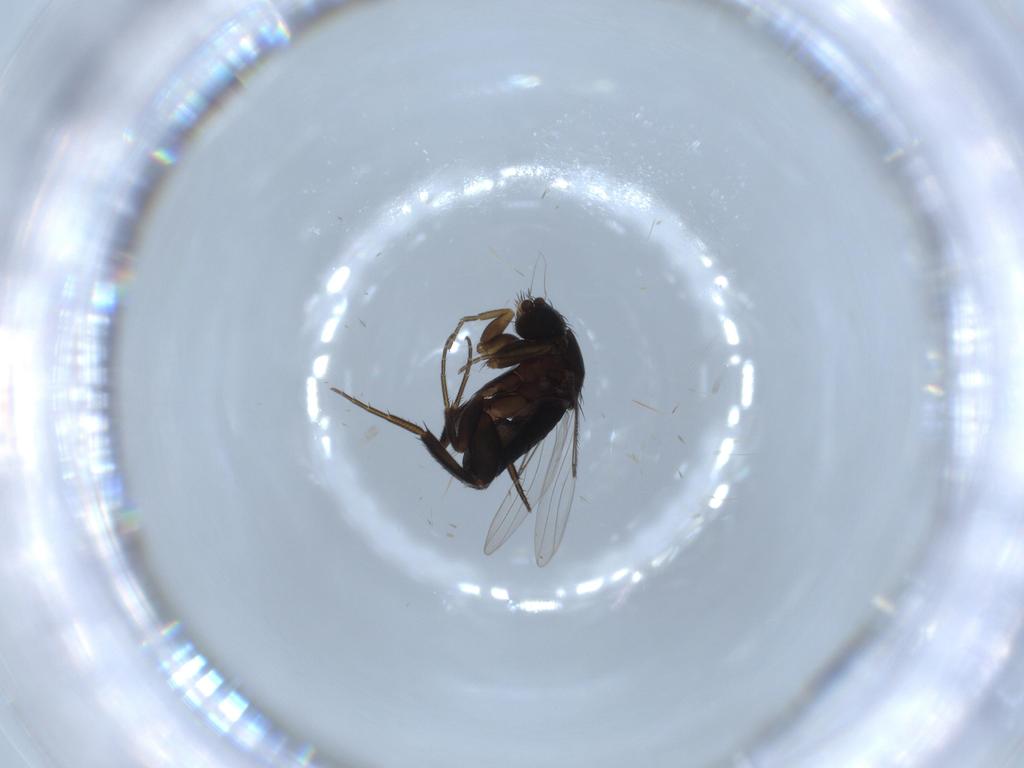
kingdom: Animalia
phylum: Arthropoda
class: Insecta
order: Diptera
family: Phoridae
